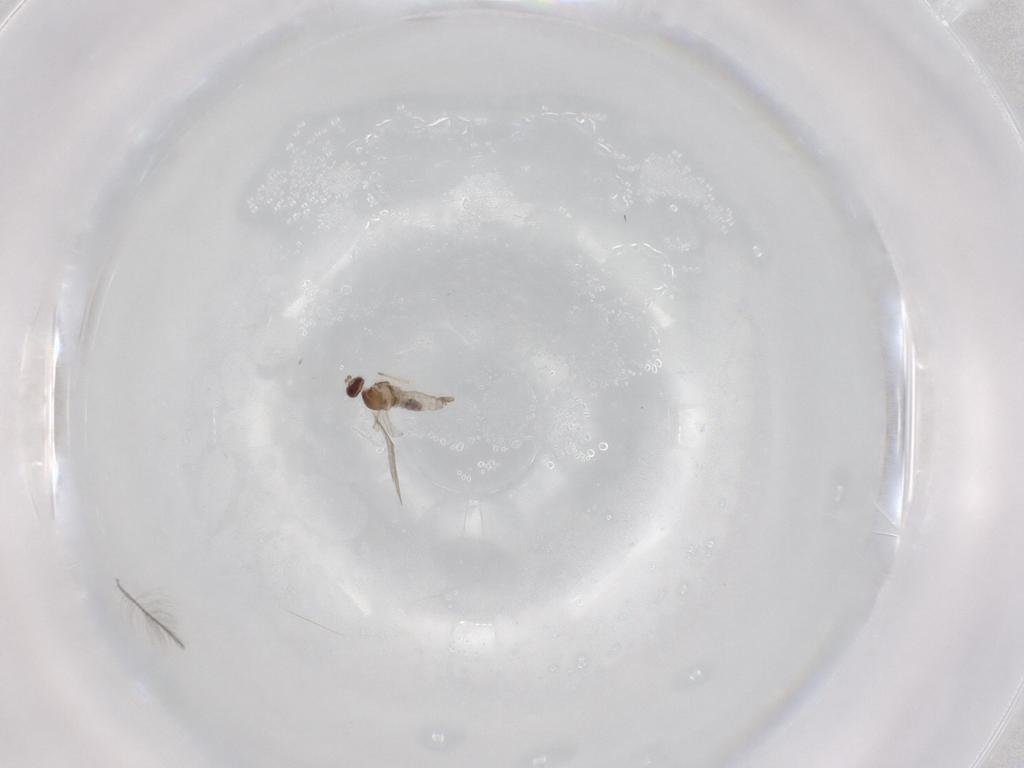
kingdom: Animalia
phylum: Arthropoda
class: Insecta
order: Diptera
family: Cecidomyiidae
